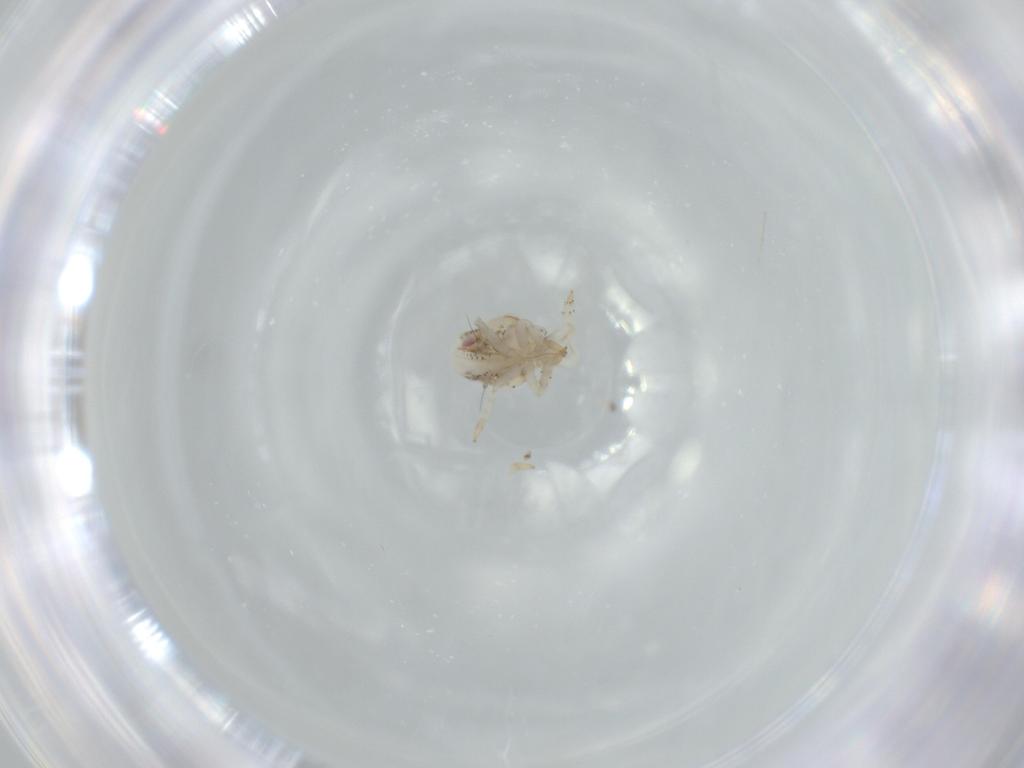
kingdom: Animalia
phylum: Arthropoda
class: Insecta
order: Hemiptera
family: Acanaloniidae
